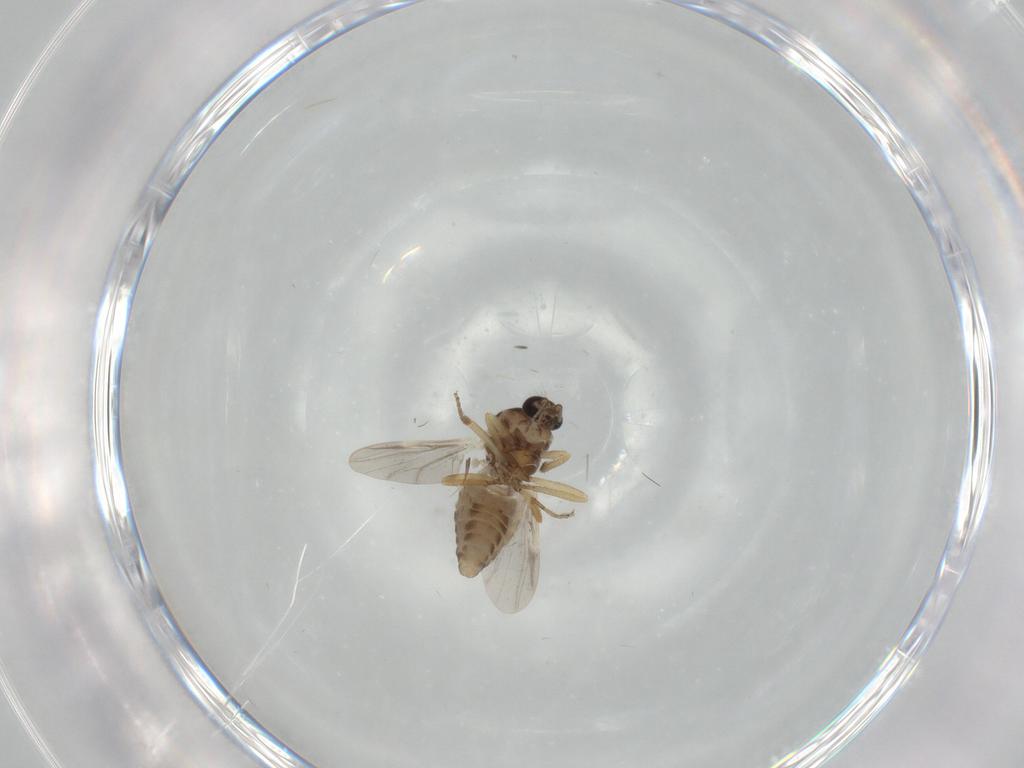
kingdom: Animalia
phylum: Arthropoda
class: Insecta
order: Diptera
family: Ceratopogonidae
